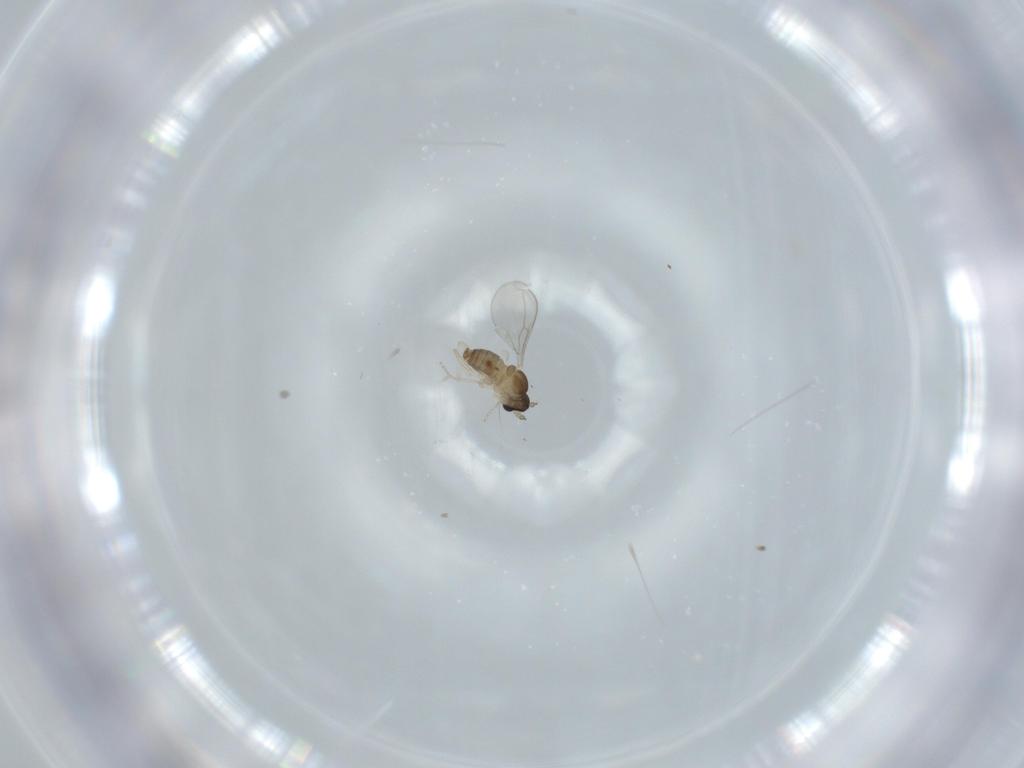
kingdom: Animalia
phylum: Arthropoda
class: Insecta
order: Diptera
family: Cecidomyiidae
